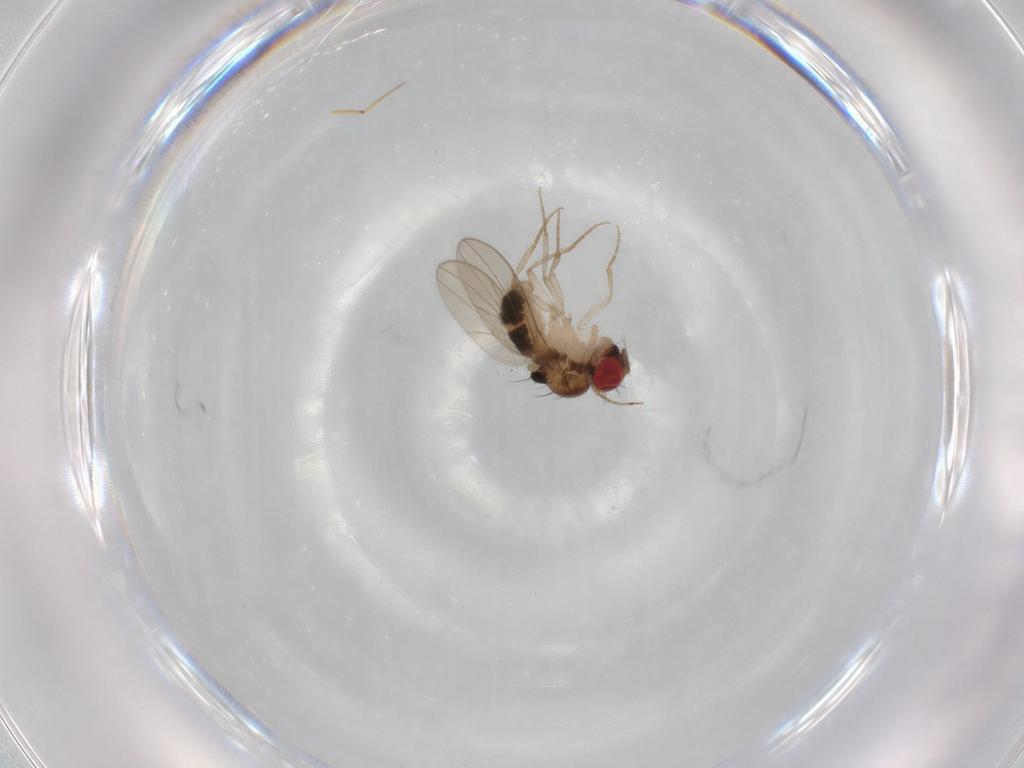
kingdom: Animalia
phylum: Arthropoda
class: Insecta
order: Diptera
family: Drosophilidae
